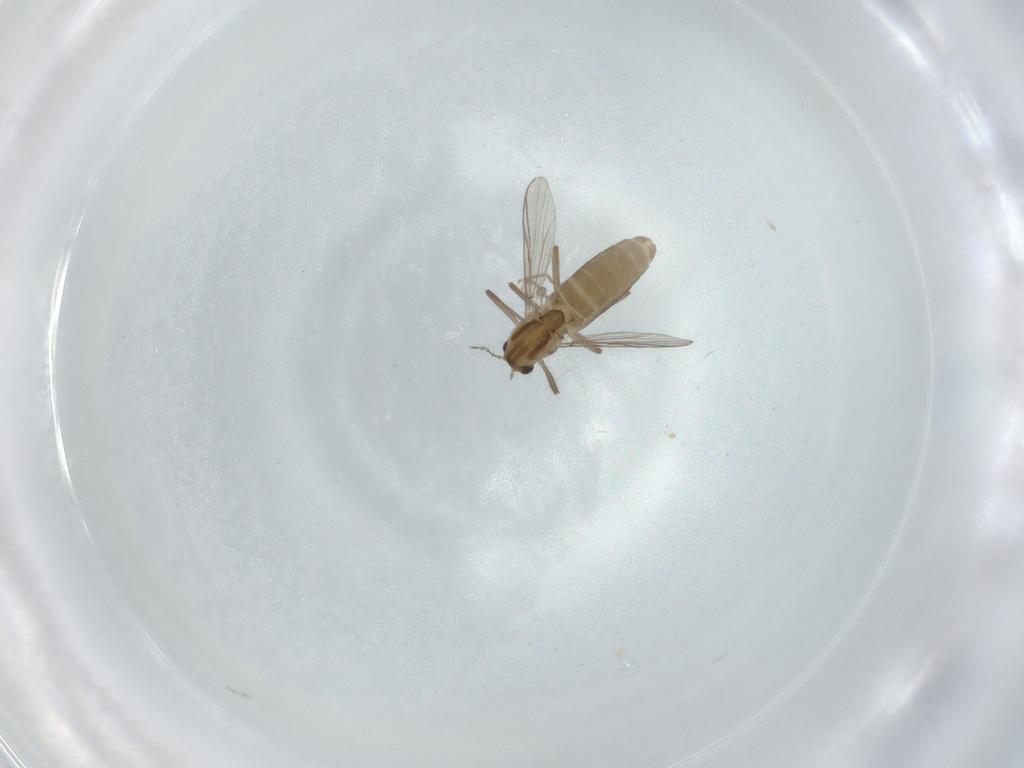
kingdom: Animalia
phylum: Arthropoda
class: Insecta
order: Diptera
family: Chironomidae
